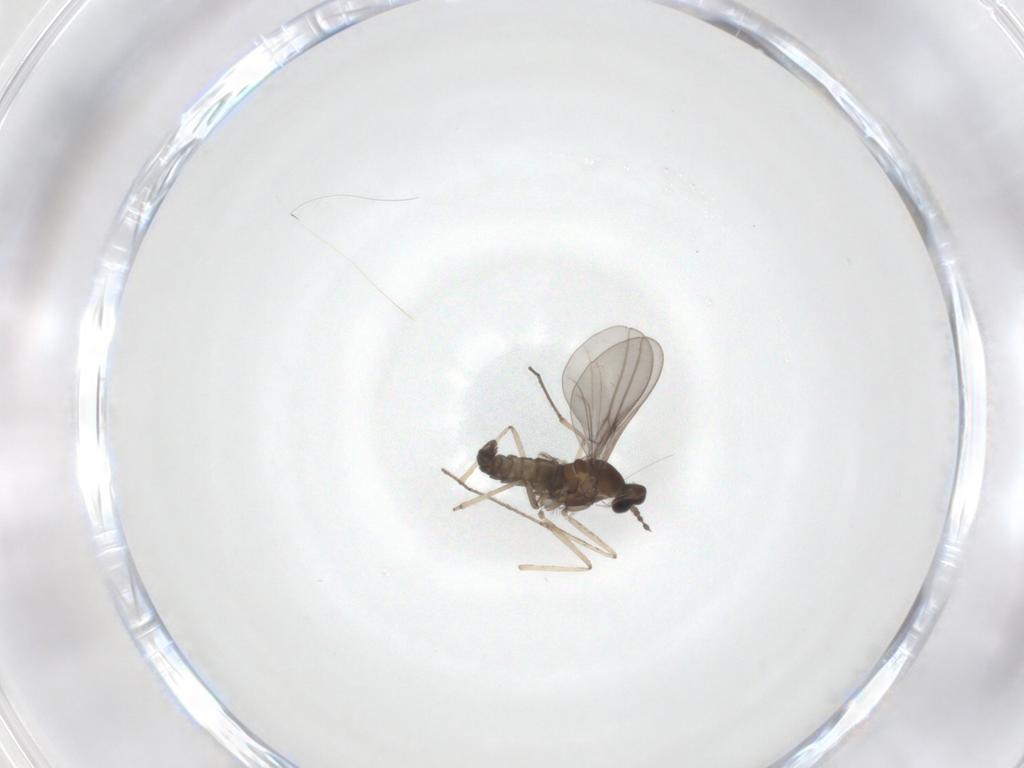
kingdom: Animalia
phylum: Arthropoda
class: Insecta
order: Diptera
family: Cecidomyiidae
